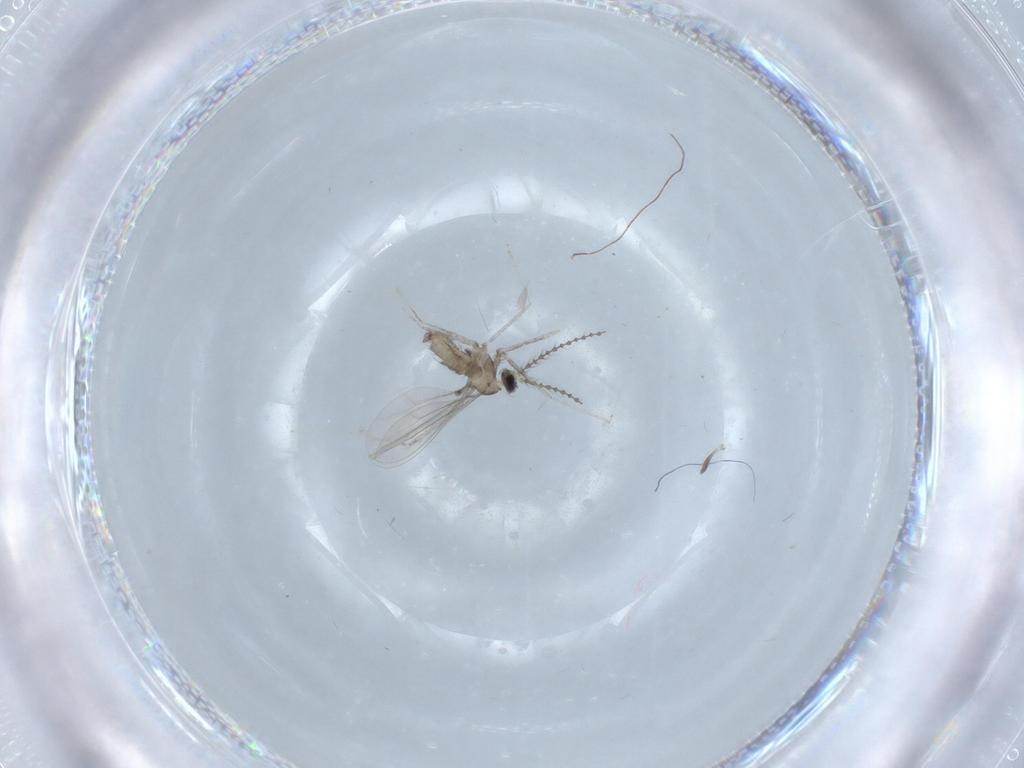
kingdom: Animalia
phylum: Arthropoda
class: Insecta
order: Diptera
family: Cecidomyiidae
